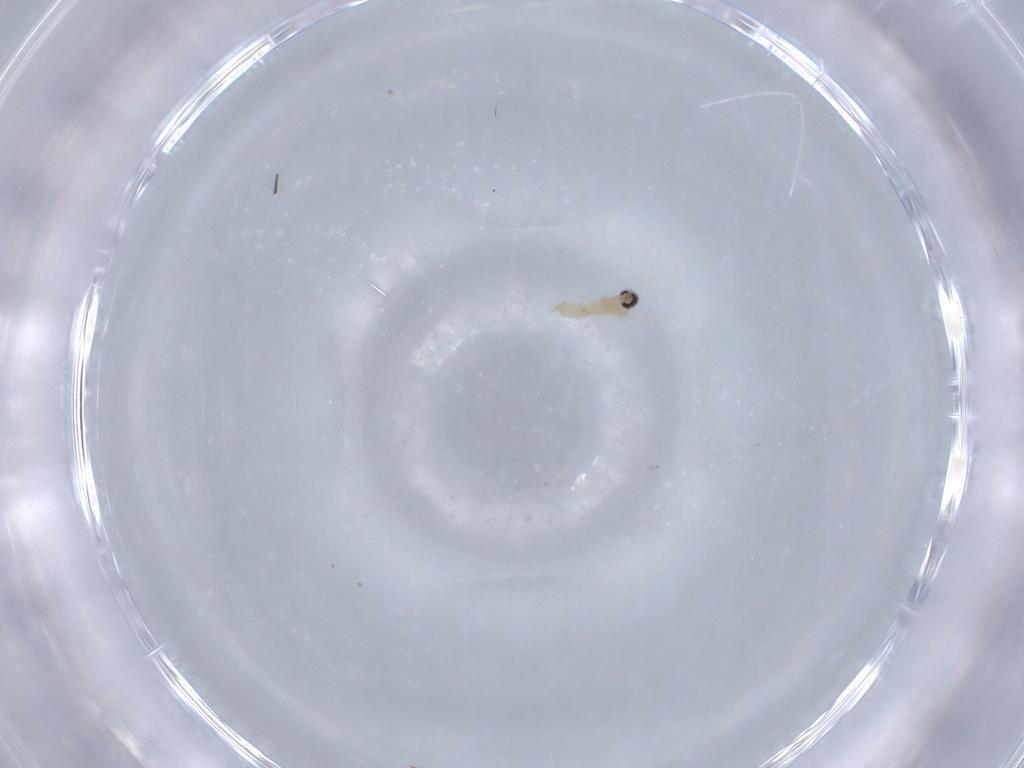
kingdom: Animalia
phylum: Arthropoda
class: Insecta
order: Diptera
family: Cecidomyiidae
